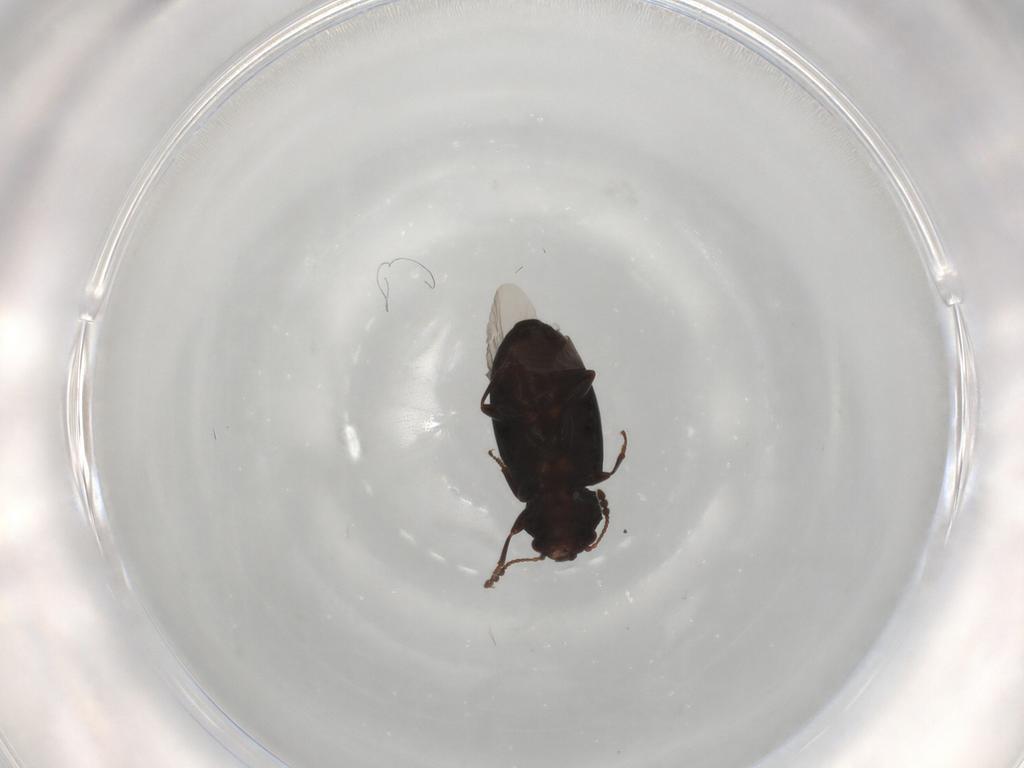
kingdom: Animalia
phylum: Arthropoda
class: Insecta
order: Coleoptera
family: Salpingidae
